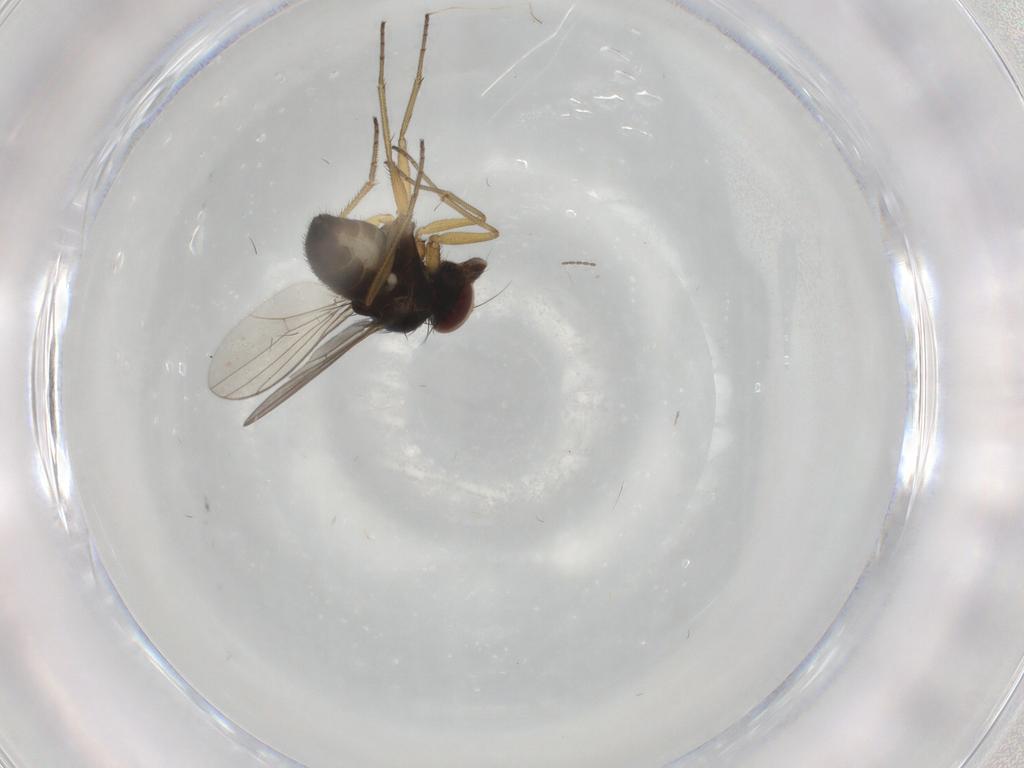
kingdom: Animalia
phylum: Arthropoda
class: Insecta
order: Diptera
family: Dolichopodidae
